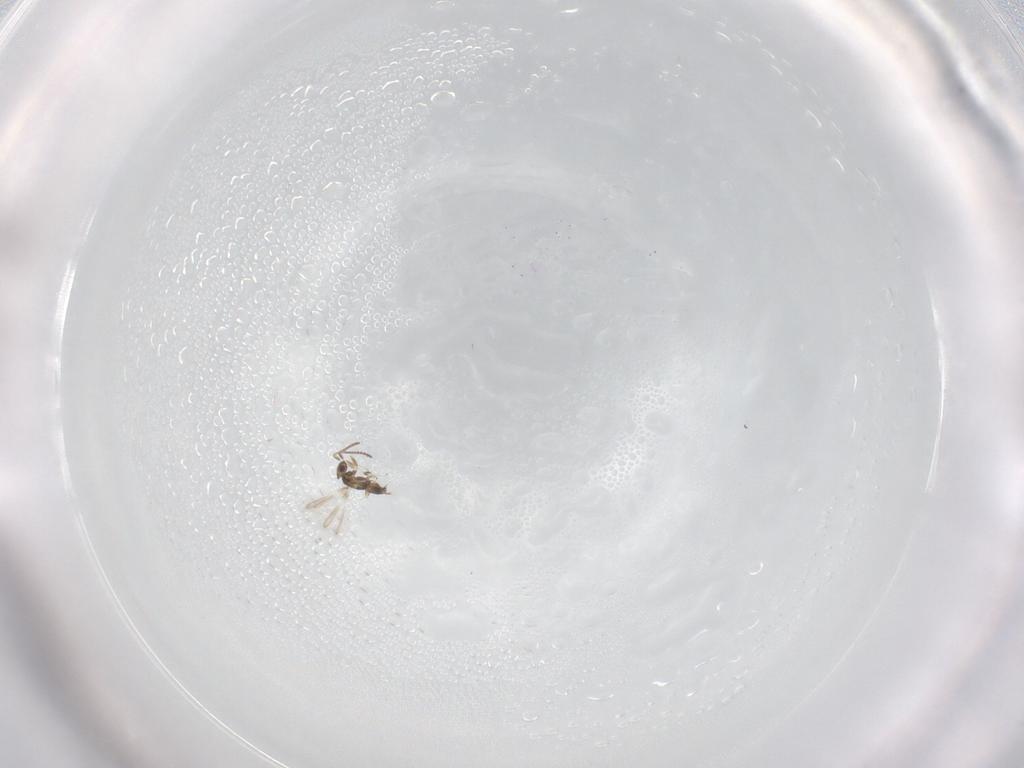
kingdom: Animalia
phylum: Arthropoda
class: Insecta
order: Hymenoptera
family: Mymaridae
